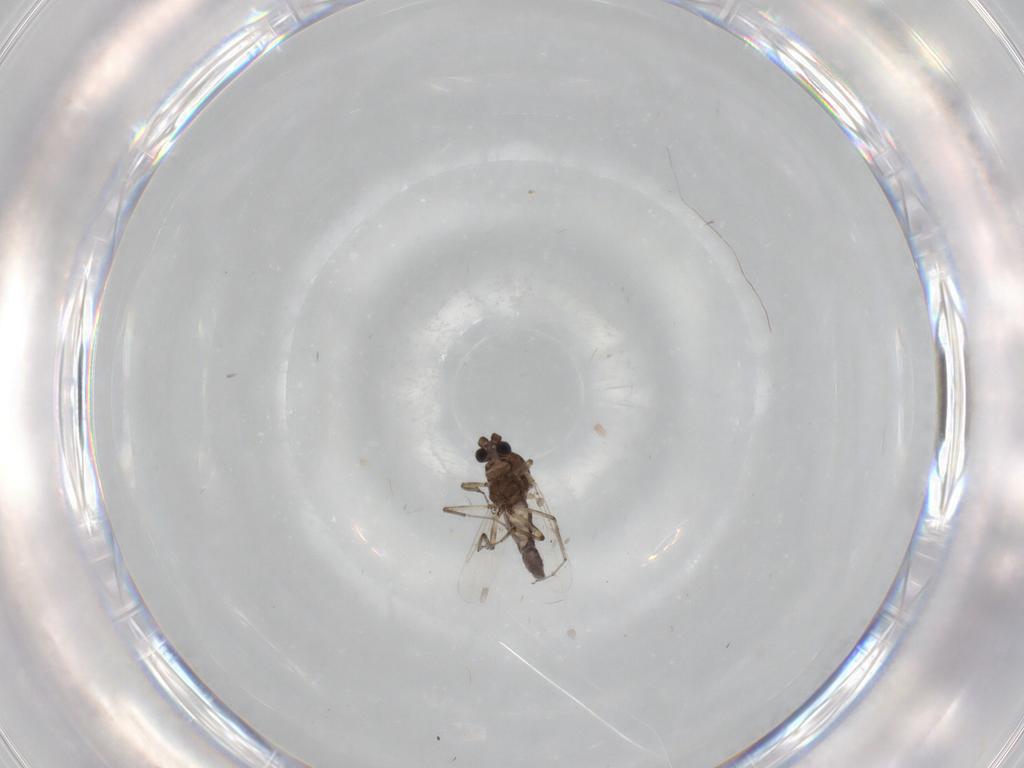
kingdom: Animalia
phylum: Arthropoda
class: Insecta
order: Diptera
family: Ceratopogonidae
